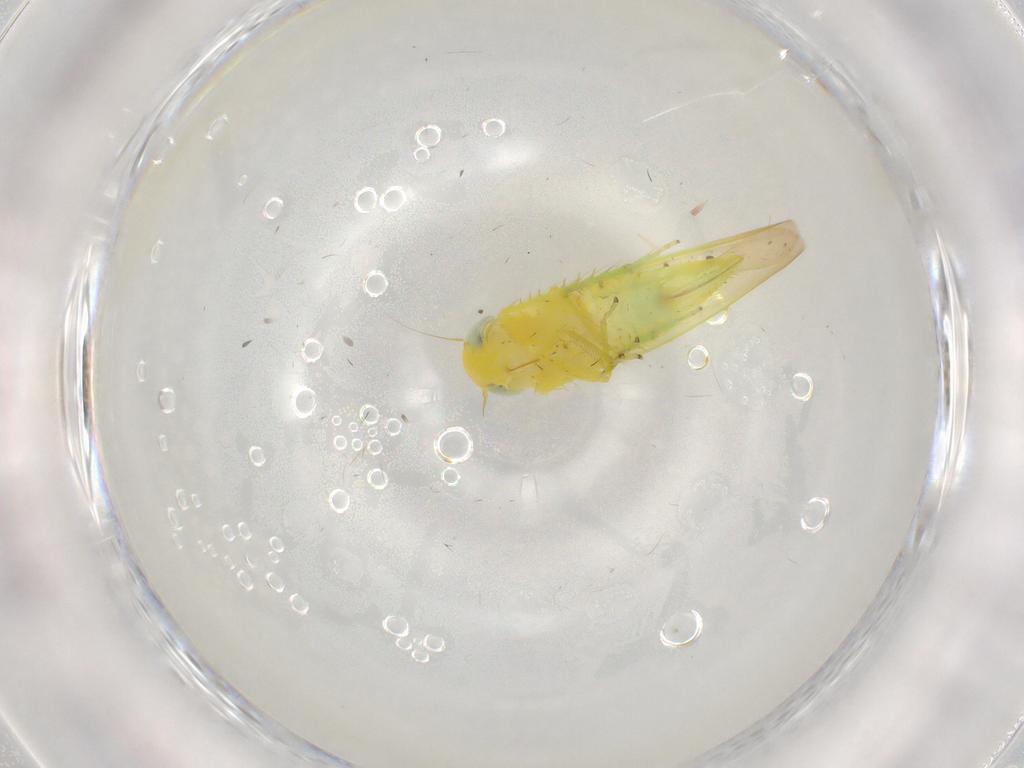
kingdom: Animalia
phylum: Arthropoda
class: Insecta
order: Hemiptera
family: Cicadellidae
